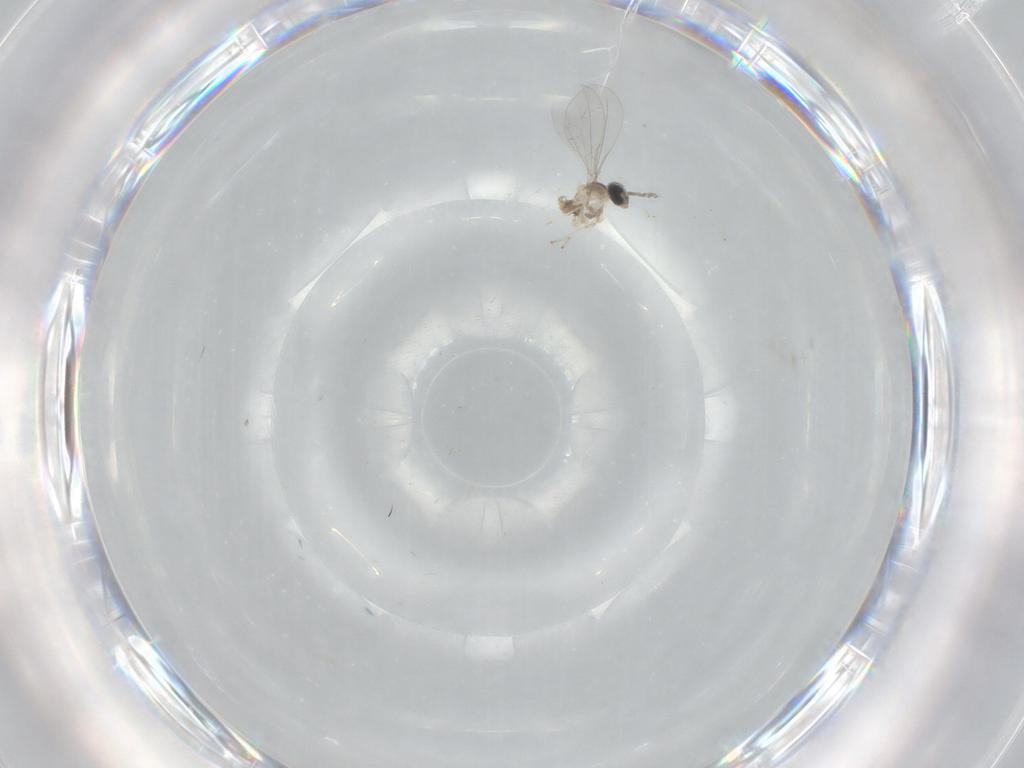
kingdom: Animalia
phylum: Arthropoda
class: Insecta
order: Diptera
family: Cecidomyiidae
